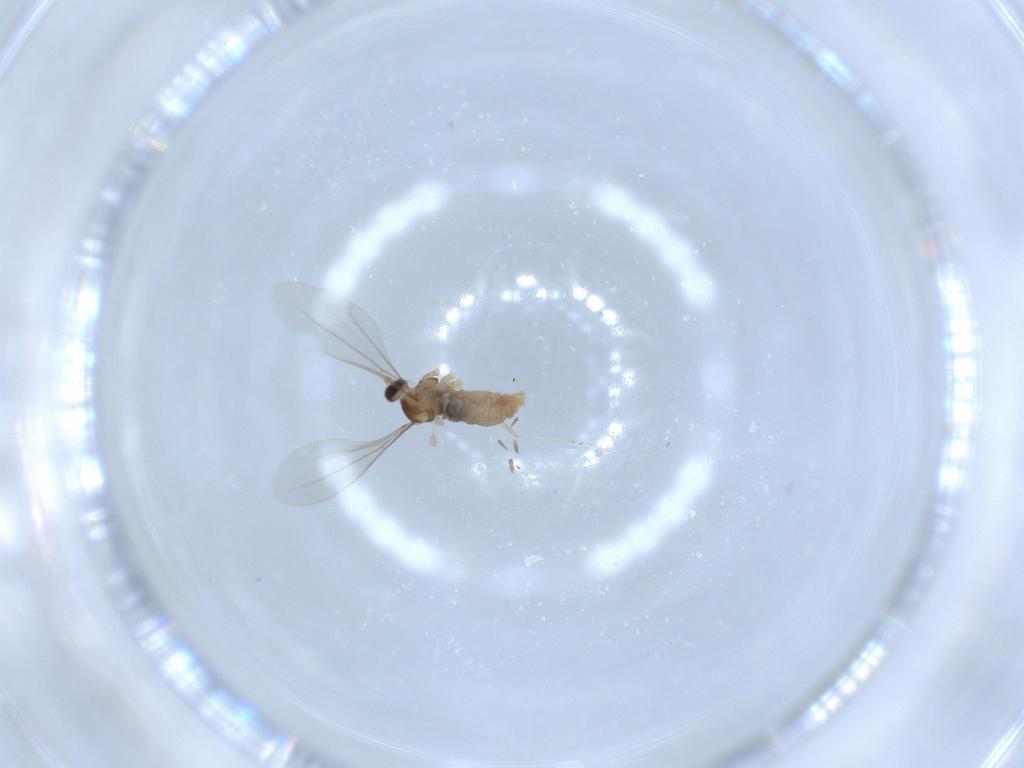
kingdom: Animalia
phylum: Arthropoda
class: Insecta
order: Diptera
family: Cecidomyiidae
